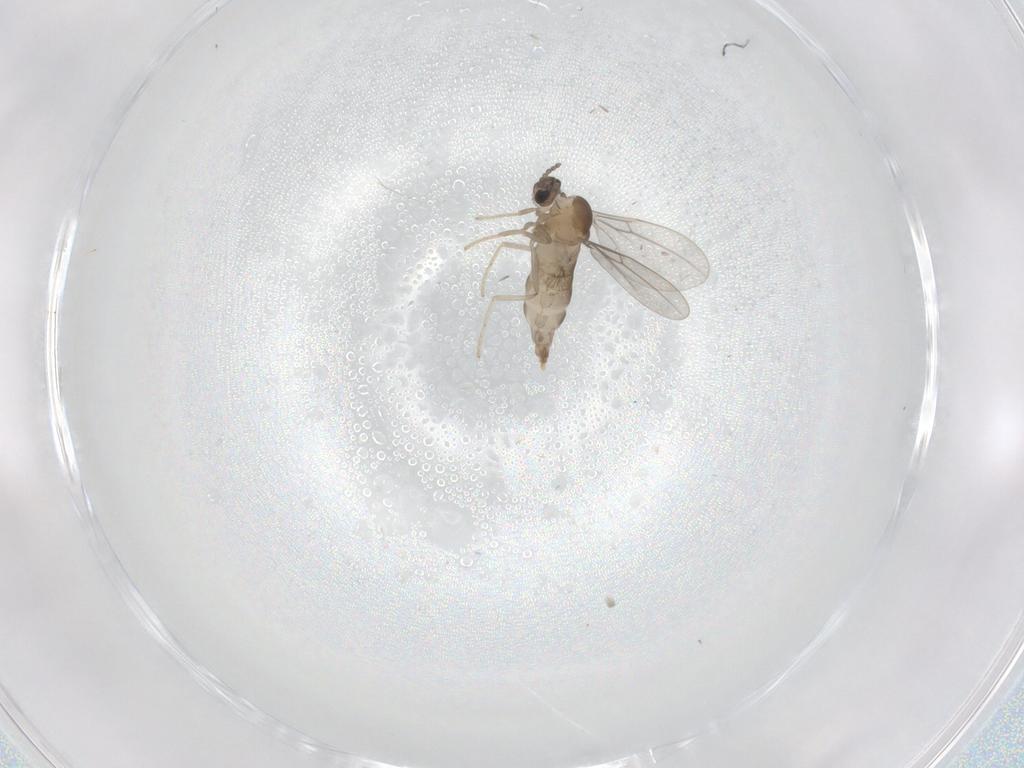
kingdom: Animalia
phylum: Arthropoda
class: Insecta
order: Diptera
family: Cecidomyiidae
